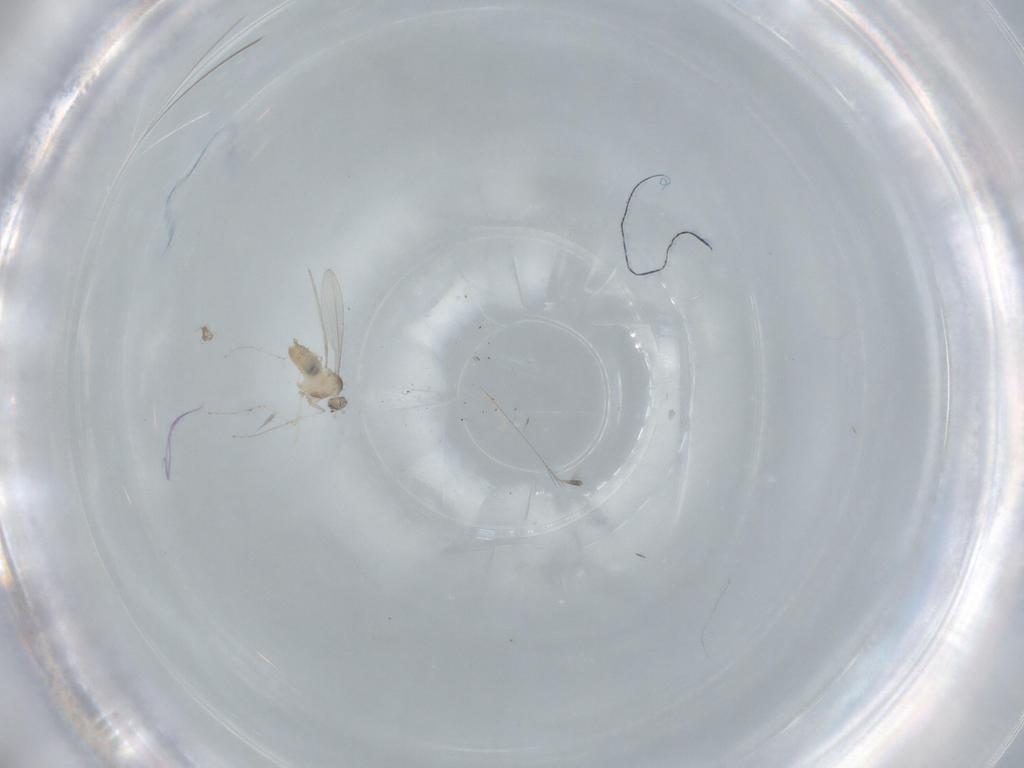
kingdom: Animalia
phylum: Arthropoda
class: Insecta
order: Diptera
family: Cecidomyiidae
